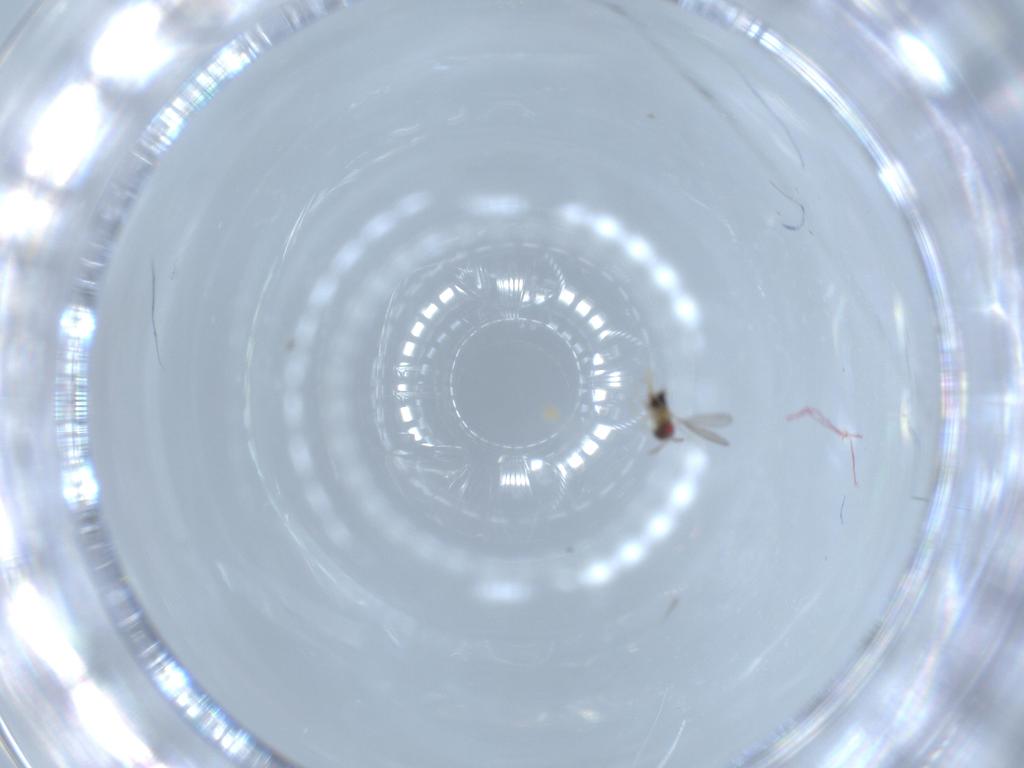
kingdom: Animalia
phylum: Arthropoda
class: Insecta
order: Hymenoptera
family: Aphelinidae
